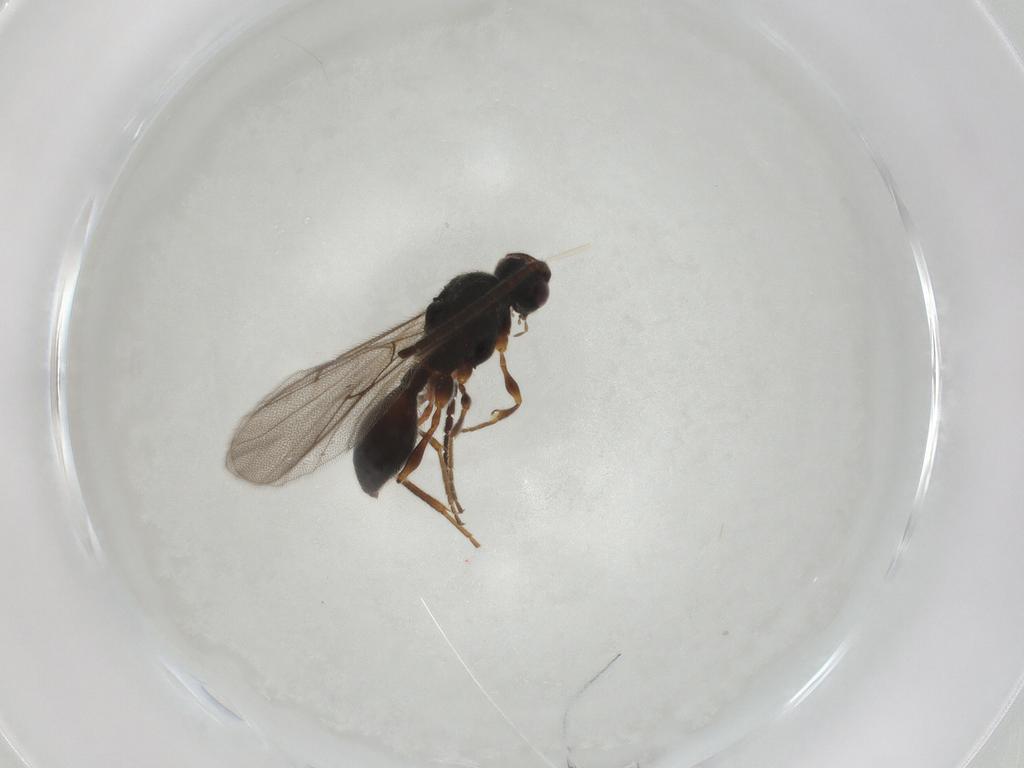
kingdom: Animalia
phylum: Arthropoda
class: Insecta
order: Hymenoptera
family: Diapriidae
